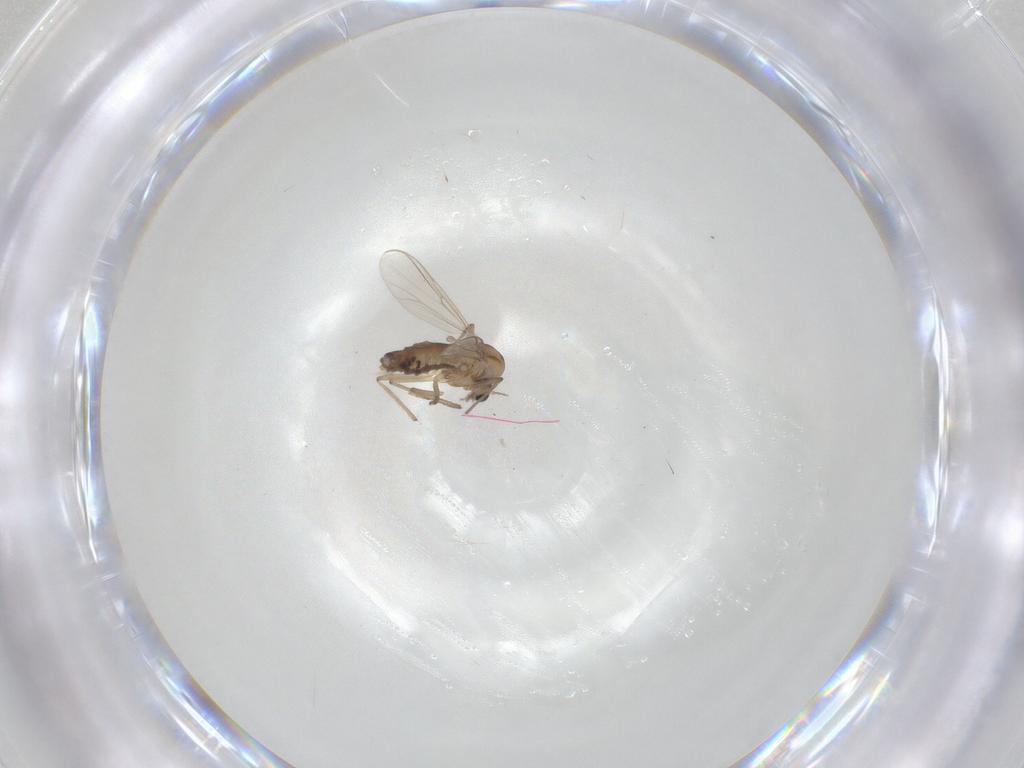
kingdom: Animalia
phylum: Arthropoda
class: Insecta
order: Diptera
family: Chironomidae
